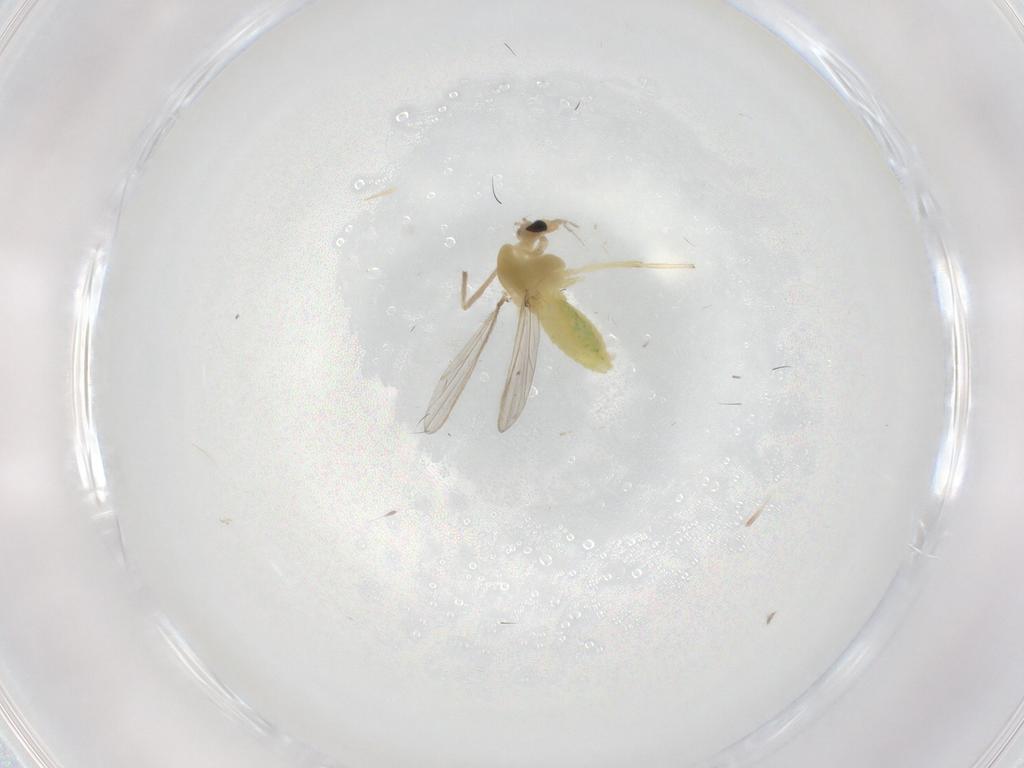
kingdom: Animalia
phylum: Arthropoda
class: Insecta
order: Diptera
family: Chironomidae
